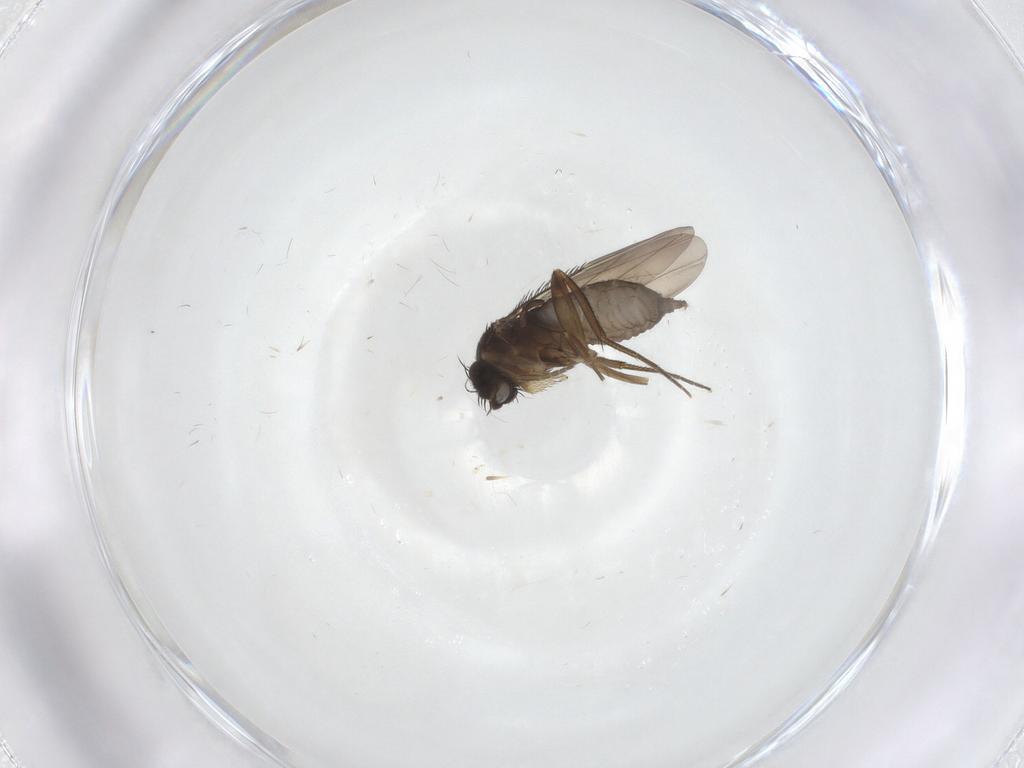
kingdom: Animalia
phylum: Arthropoda
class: Insecta
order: Diptera
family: Phoridae
